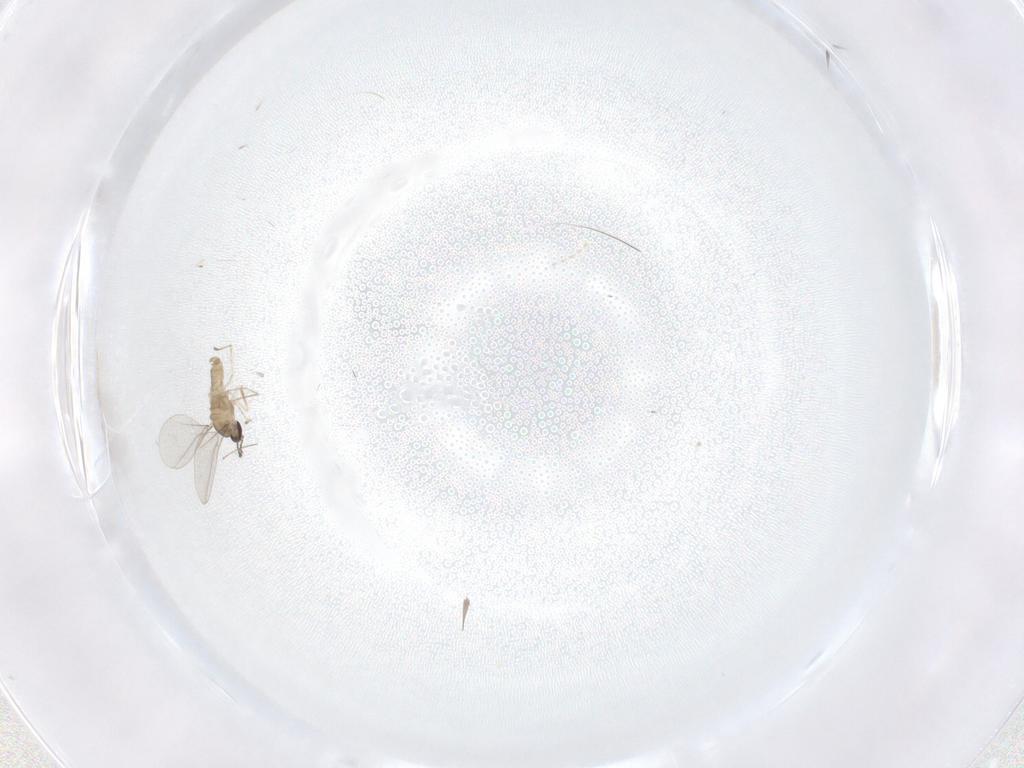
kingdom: Animalia
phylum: Arthropoda
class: Insecta
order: Diptera
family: Cecidomyiidae
